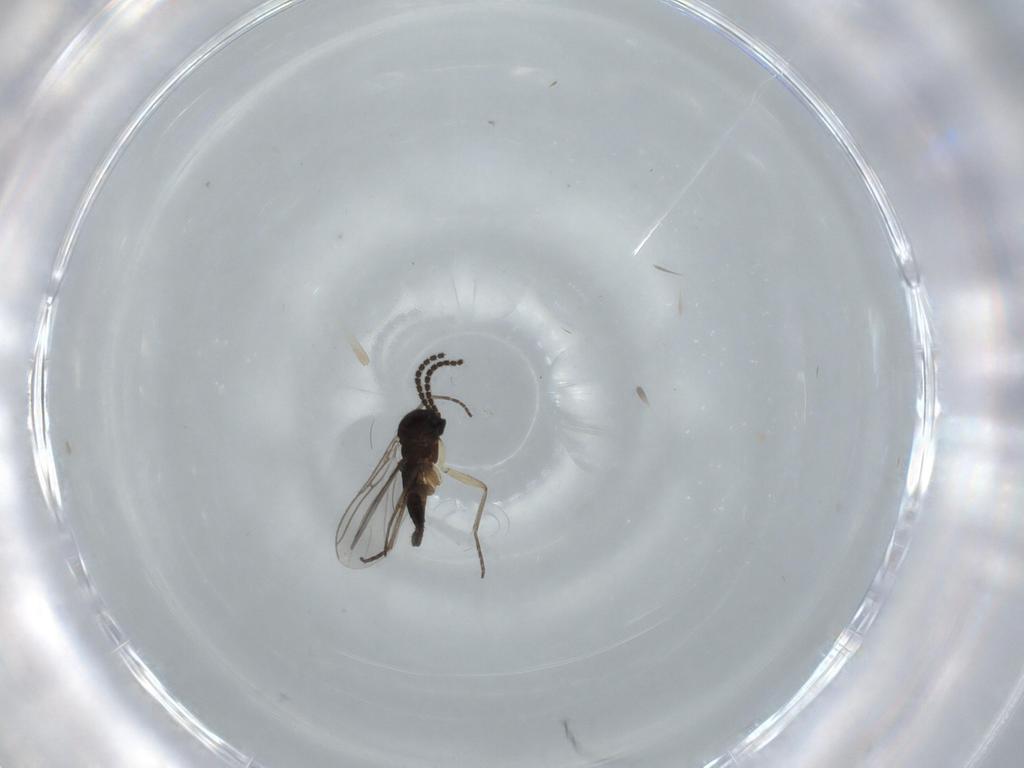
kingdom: Animalia
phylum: Arthropoda
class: Insecta
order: Diptera
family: Cecidomyiidae
